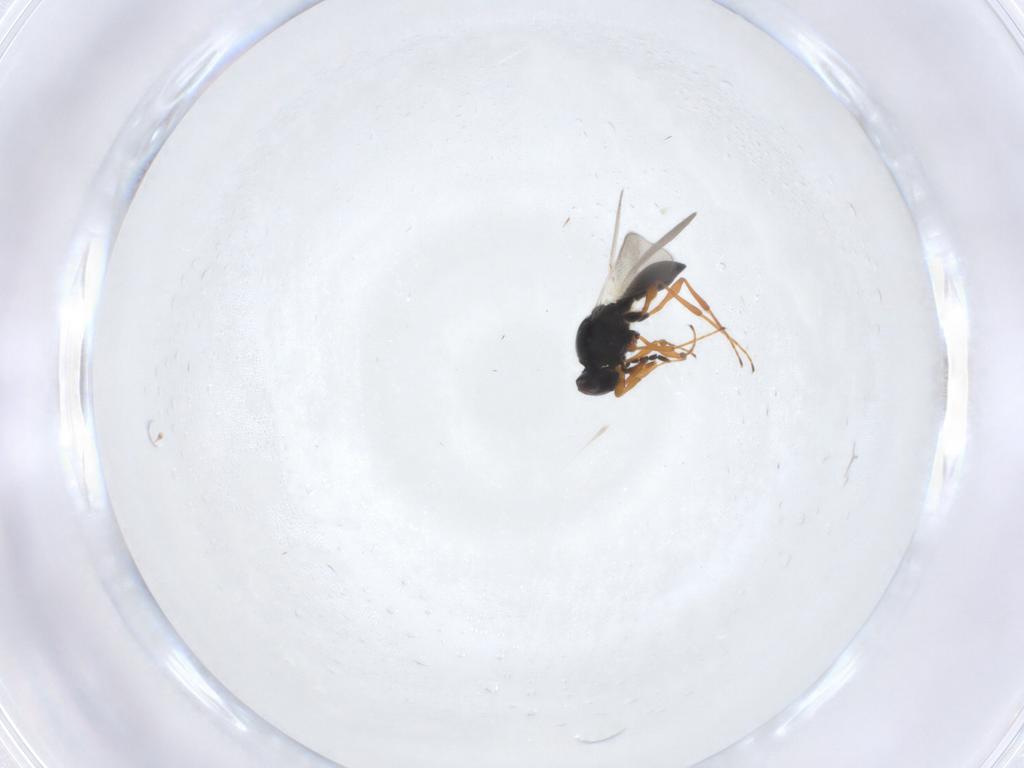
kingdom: Animalia
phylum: Arthropoda
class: Insecta
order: Hymenoptera
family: Platygastridae
